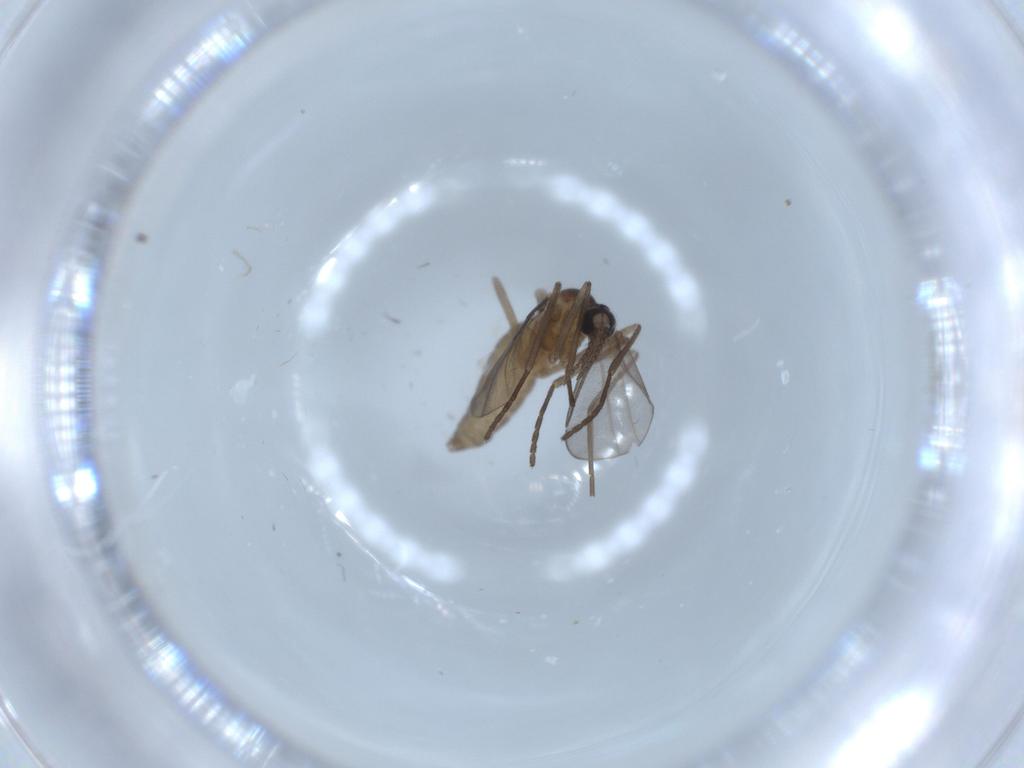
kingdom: Animalia
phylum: Arthropoda
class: Insecta
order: Diptera
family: Cecidomyiidae
